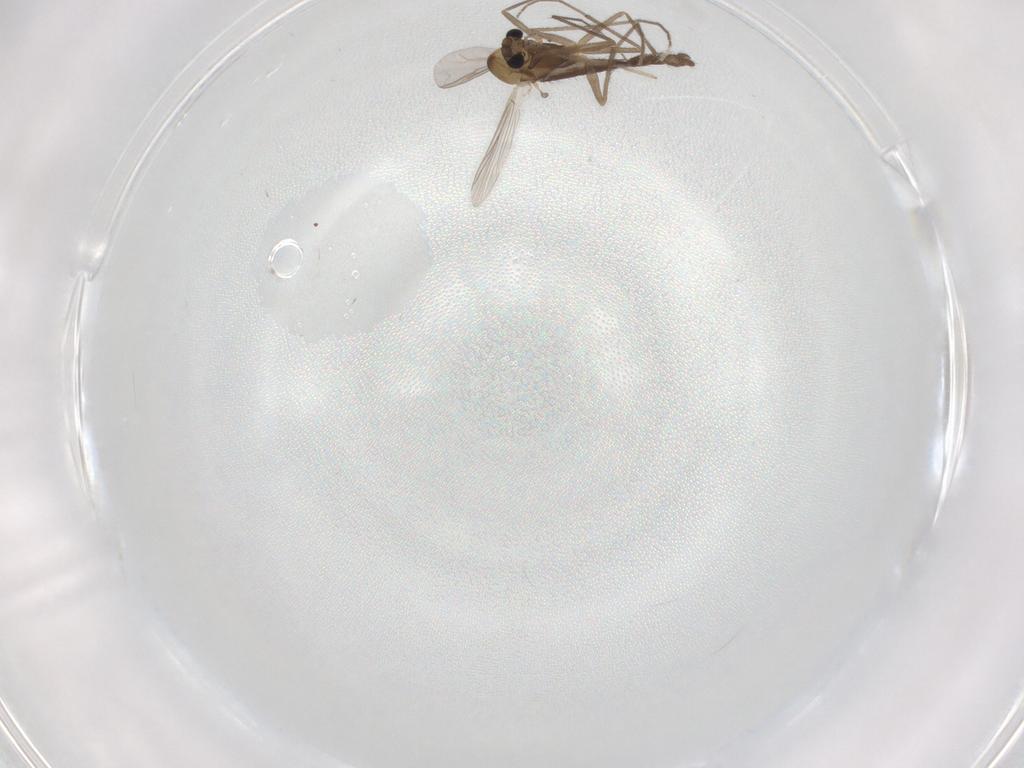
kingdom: Animalia
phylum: Arthropoda
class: Insecta
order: Diptera
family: Chironomidae
